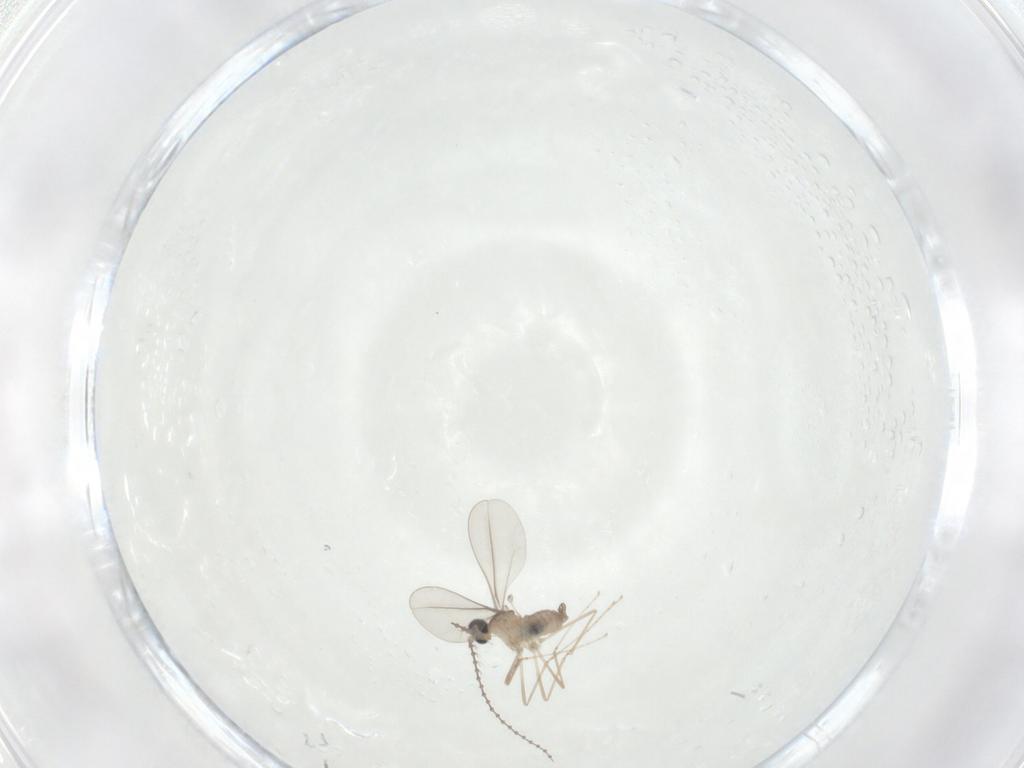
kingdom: Animalia
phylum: Arthropoda
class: Insecta
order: Diptera
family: Cecidomyiidae
